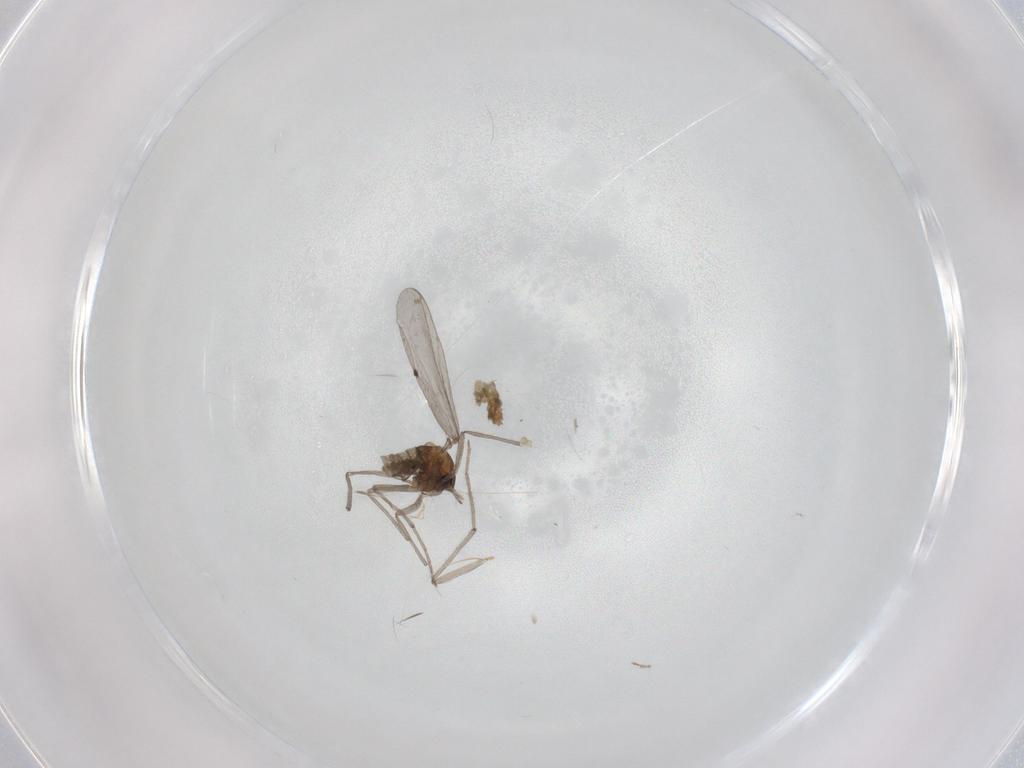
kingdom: Animalia
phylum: Arthropoda
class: Insecta
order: Diptera
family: Chironomidae
